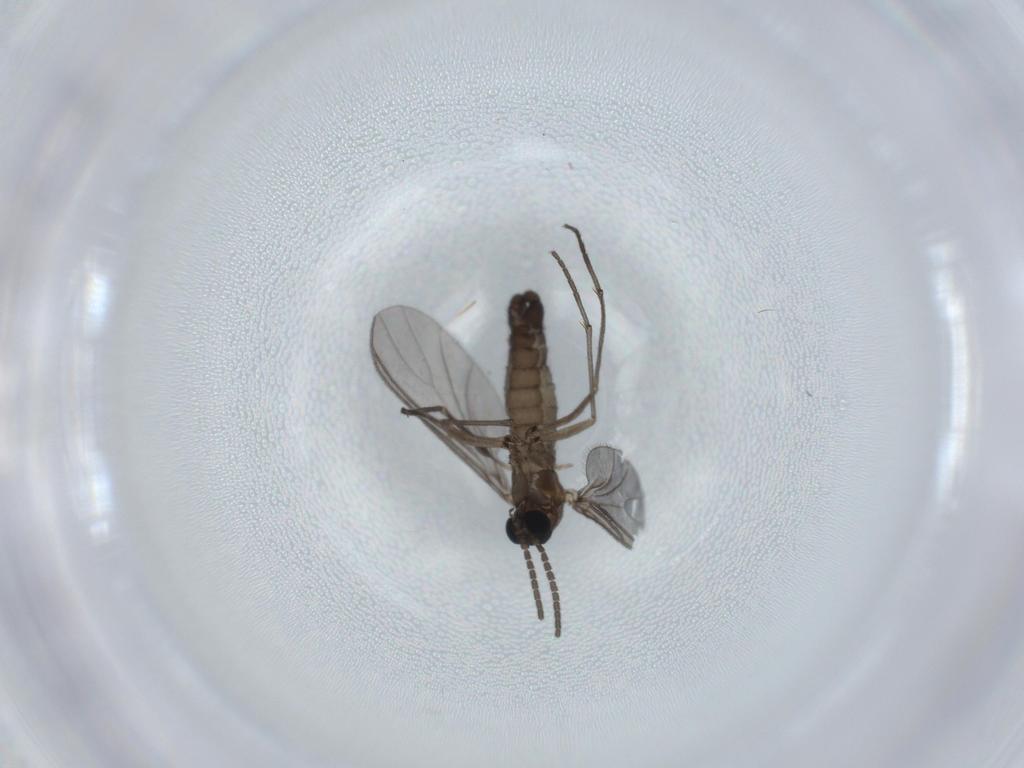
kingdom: Animalia
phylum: Arthropoda
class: Insecta
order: Diptera
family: Sciaridae
